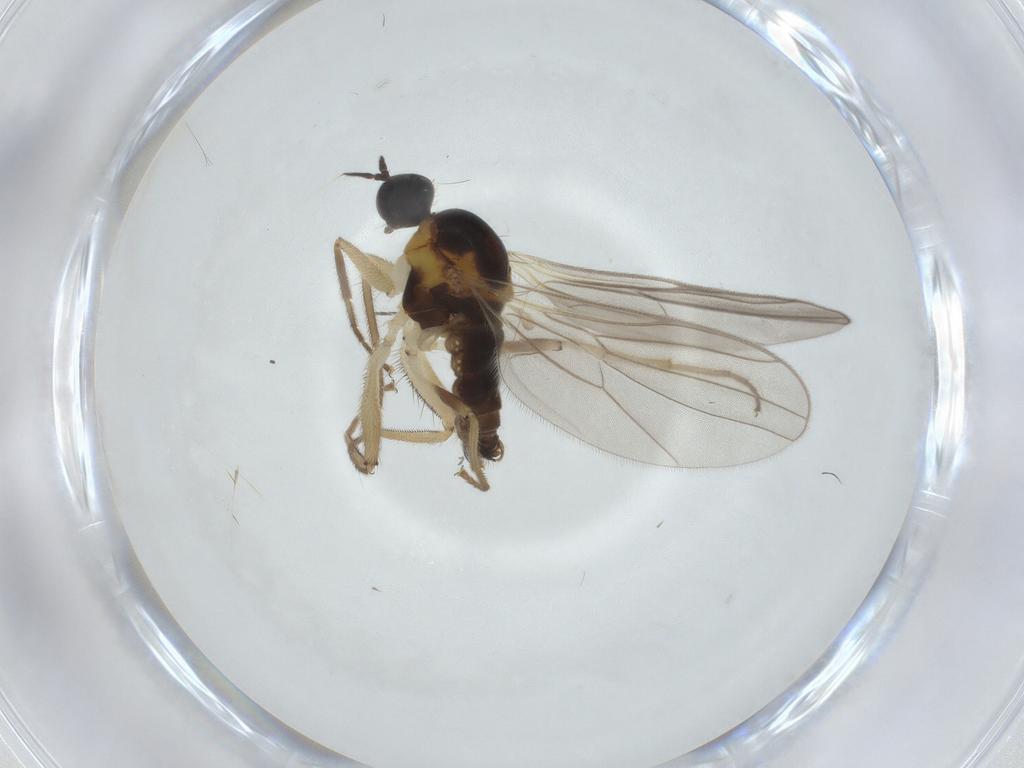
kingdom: Animalia
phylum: Arthropoda
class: Insecta
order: Diptera
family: Hybotidae
